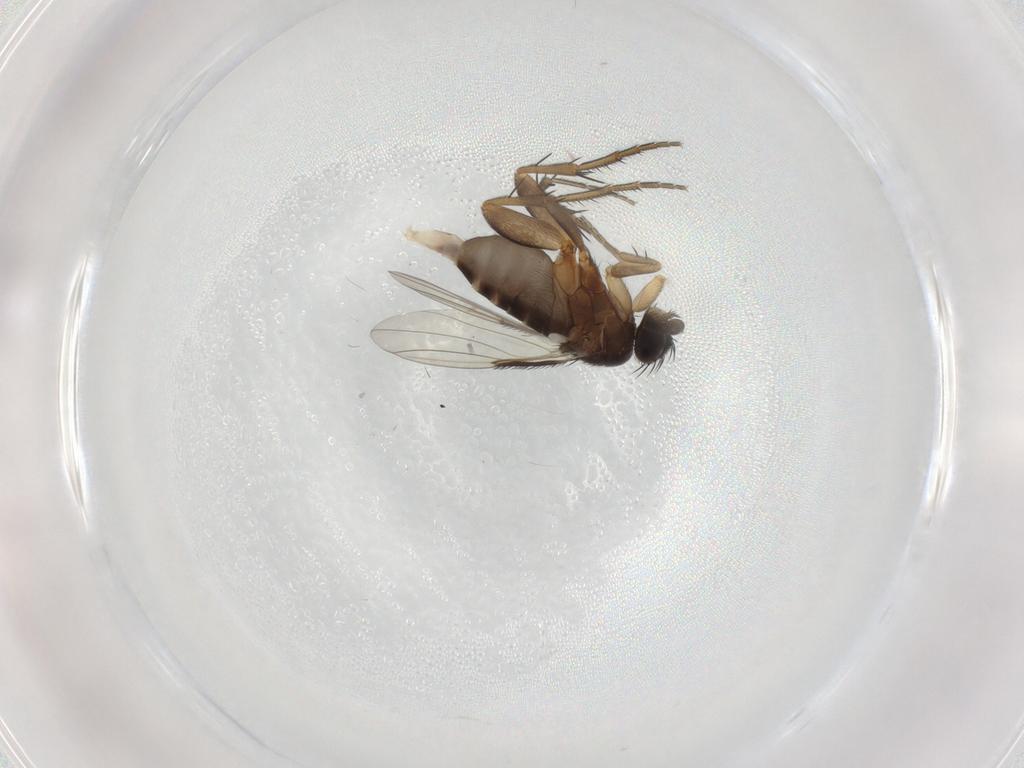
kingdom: Animalia
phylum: Arthropoda
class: Insecta
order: Diptera
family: Phoridae
